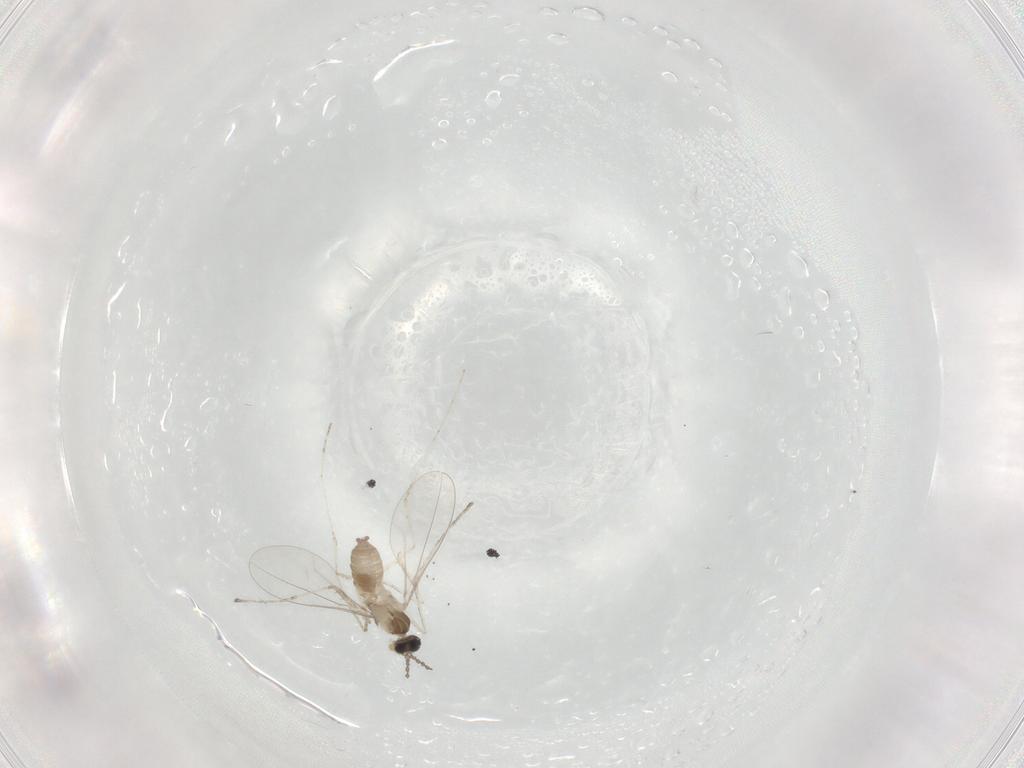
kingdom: Animalia
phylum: Arthropoda
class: Insecta
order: Diptera
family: Cecidomyiidae
